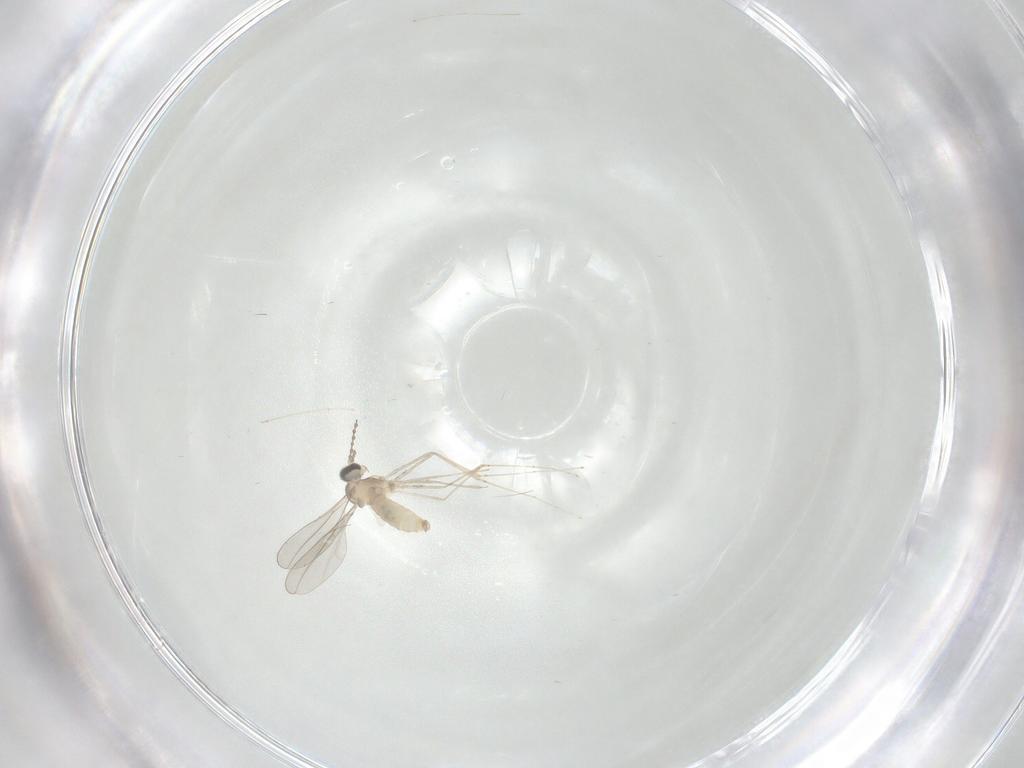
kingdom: Animalia
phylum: Arthropoda
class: Insecta
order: Diptera
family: Cecidomyiidae
